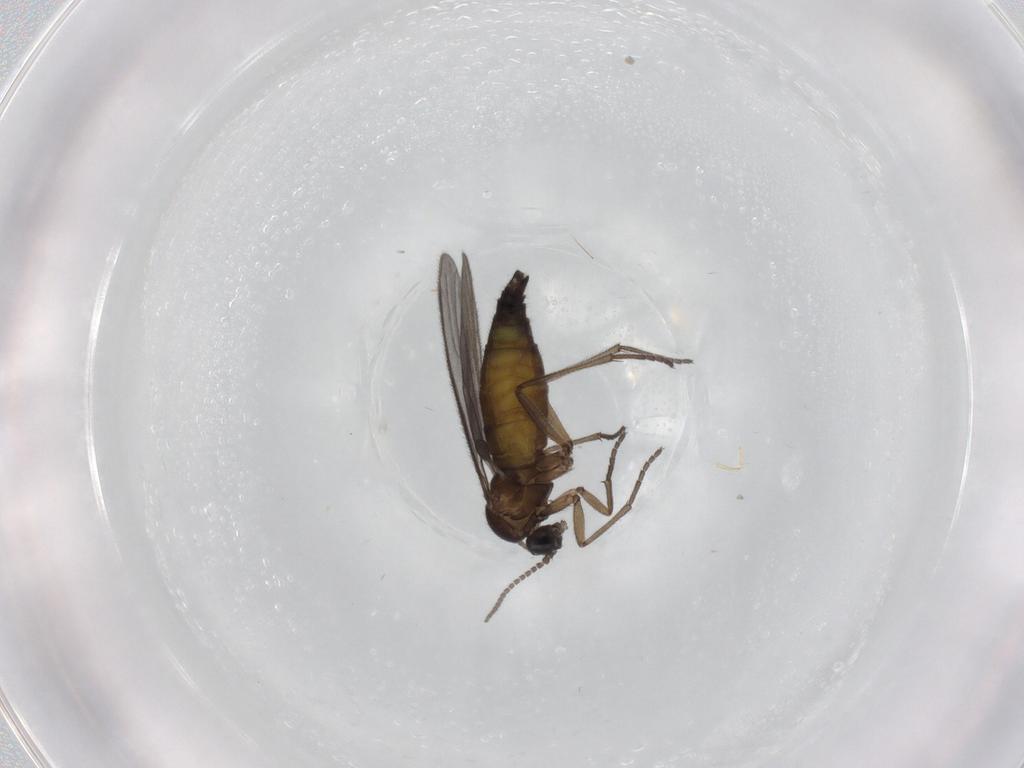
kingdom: Animalia
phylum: Arthropoda
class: Insecta
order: Diptera
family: Sciaridae
